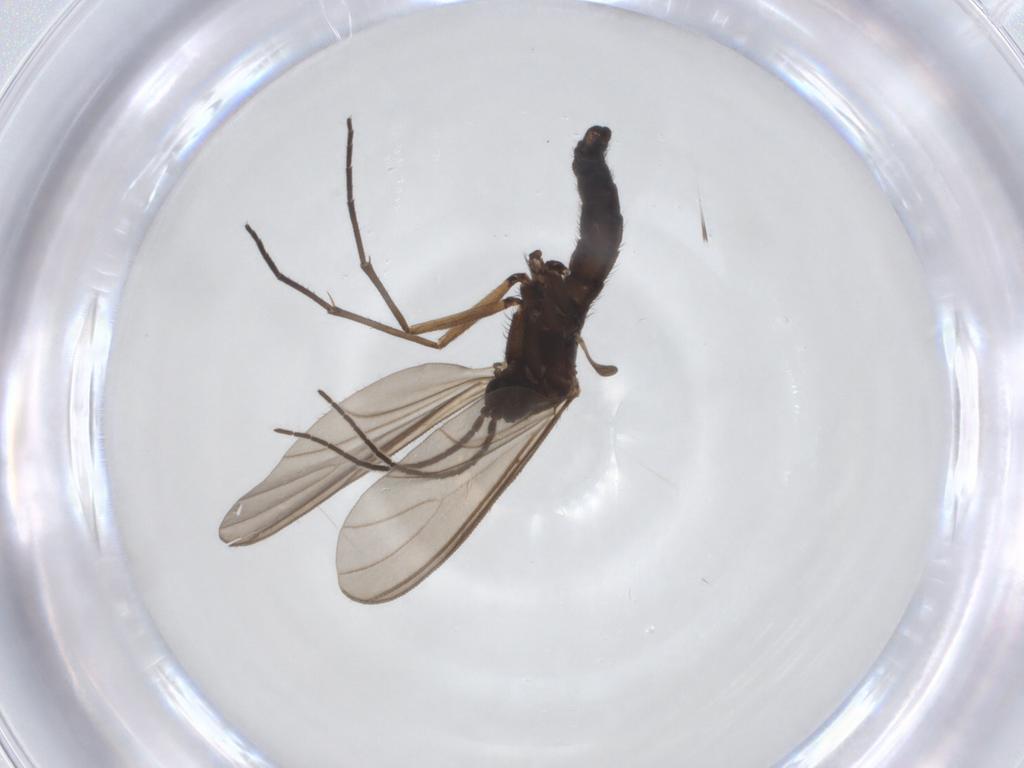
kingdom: Animalia
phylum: Arthropoda
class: Insecta
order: Diptera
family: Sciaridae
